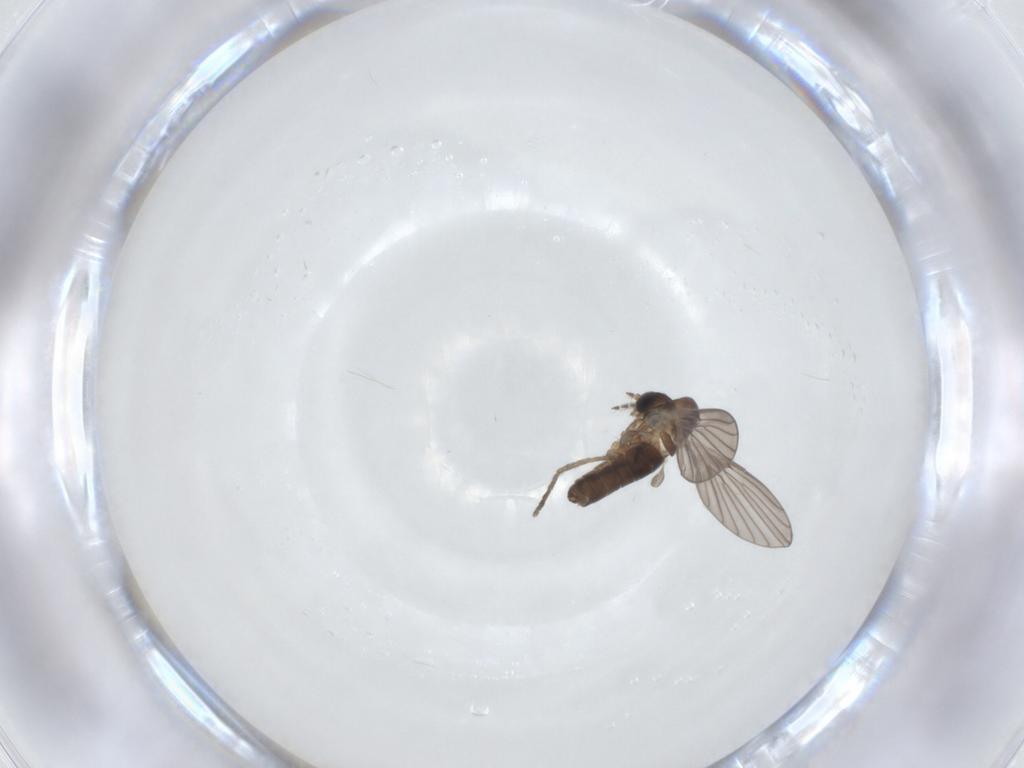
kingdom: Animalia
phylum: Arthropoda
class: Insecta
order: Diptera
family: Psychodidae
